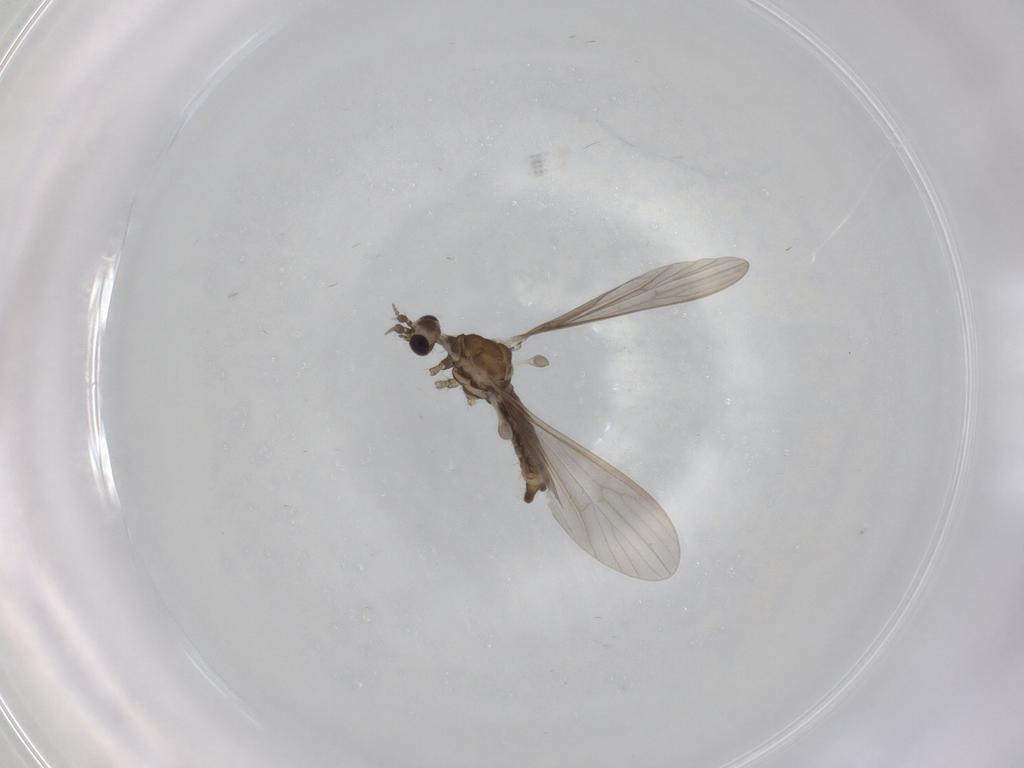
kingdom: Animalia
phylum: Arthropoda
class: Insecta
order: Diptera
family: Limoniidae
